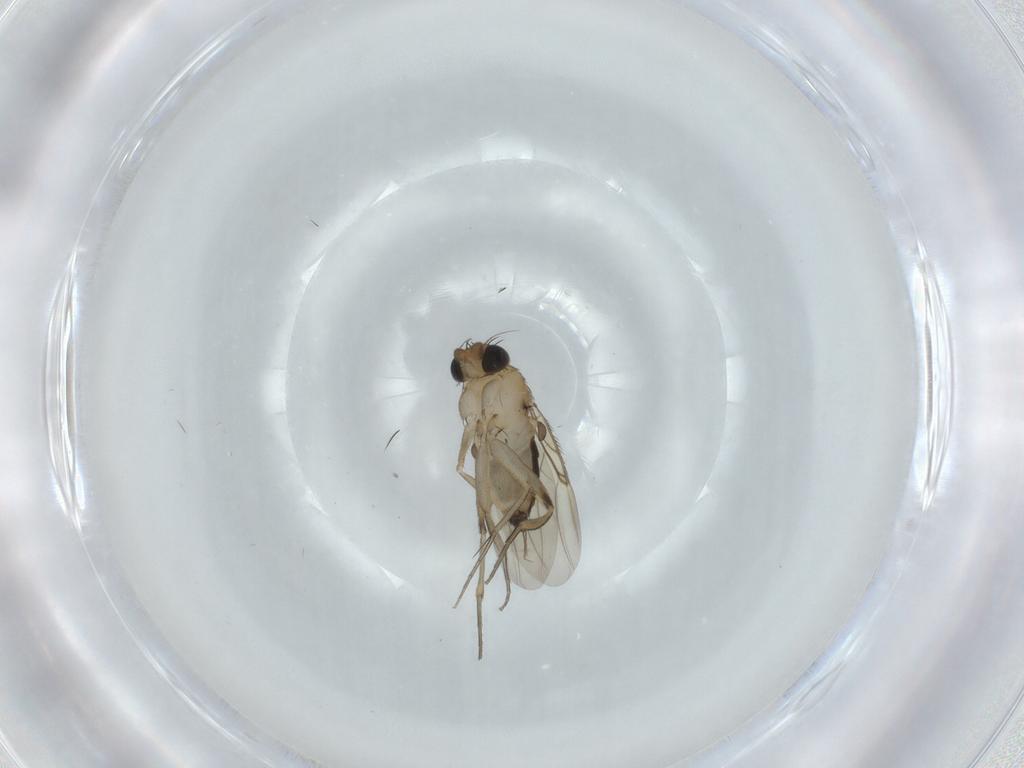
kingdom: Animalia
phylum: Arthropoda
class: Insecta
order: Diptera
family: Phoridae
